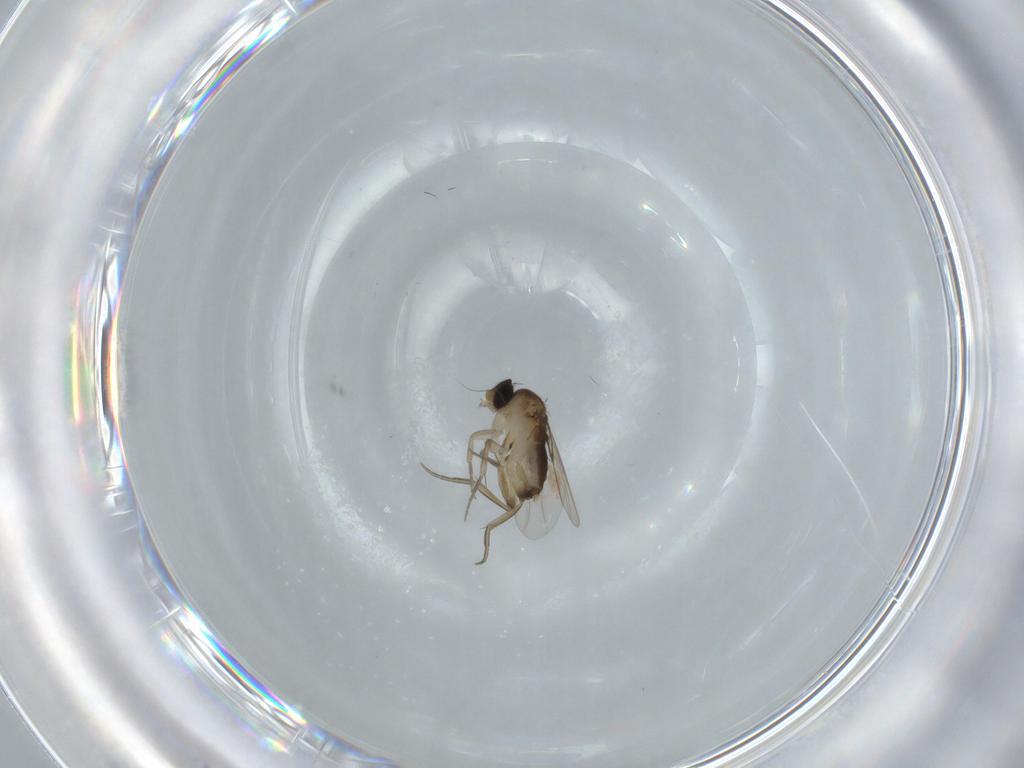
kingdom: Animalia
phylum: Arthropoda
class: Insecta
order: Diptera
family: Phoridae
